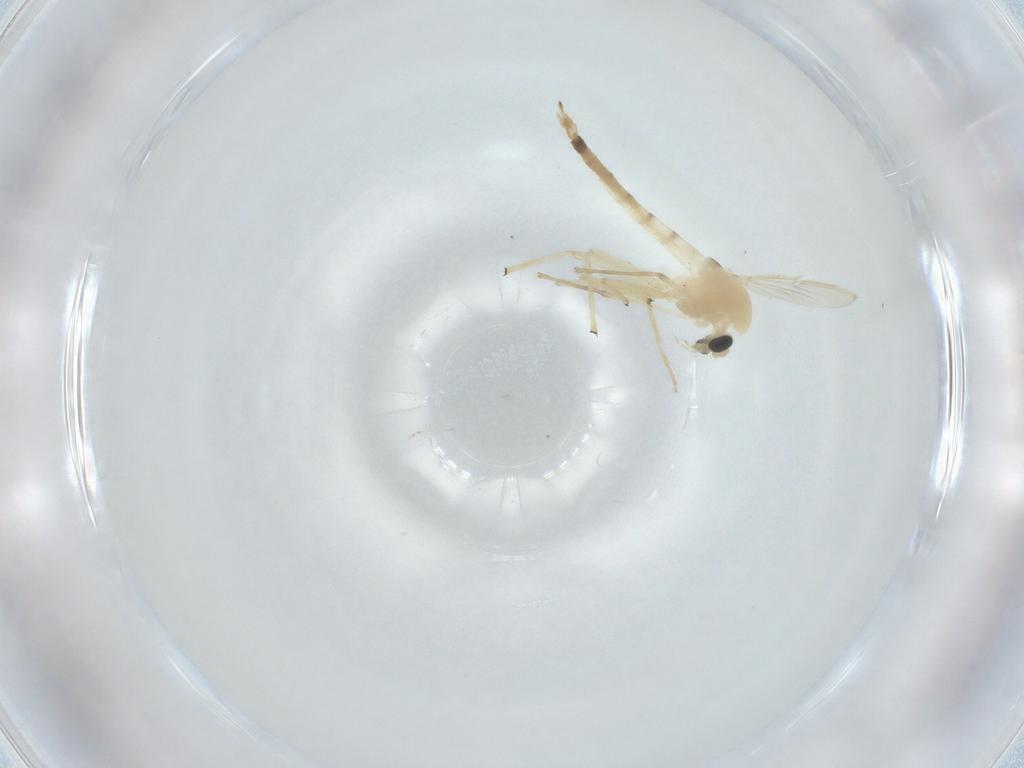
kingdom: Animalia
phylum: Arthropoda
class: Insecta
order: Diptera
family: Chironomidae
